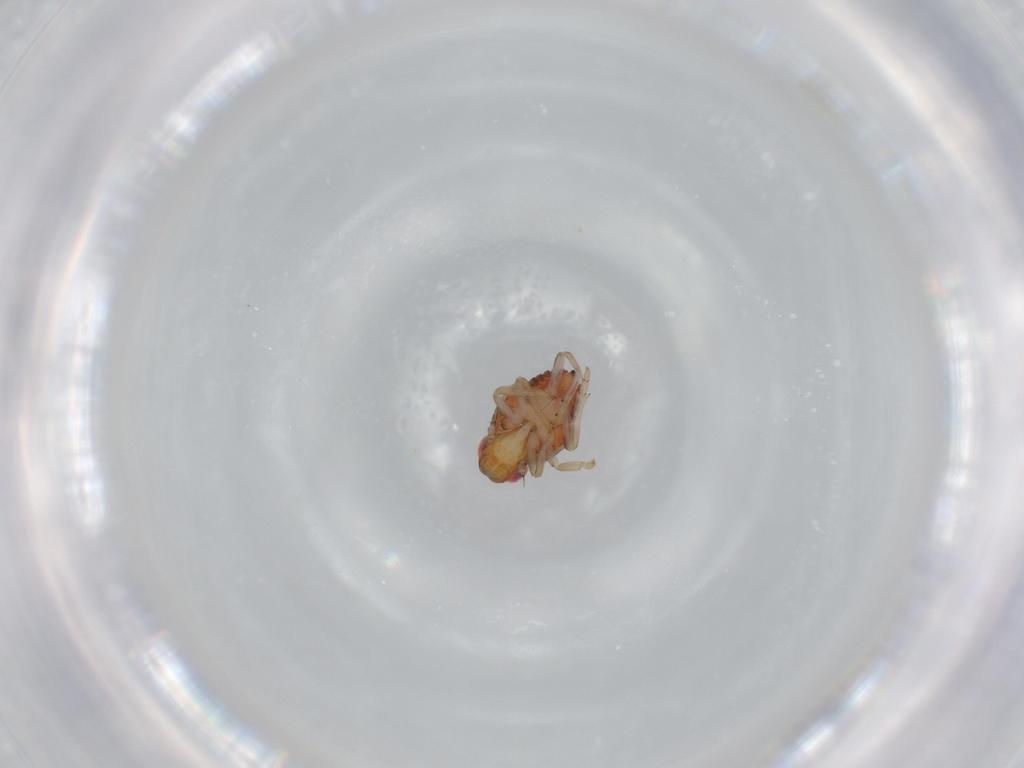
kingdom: Animalia
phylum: Arthropoda
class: Insecta
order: Hemiptera
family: Issidae
